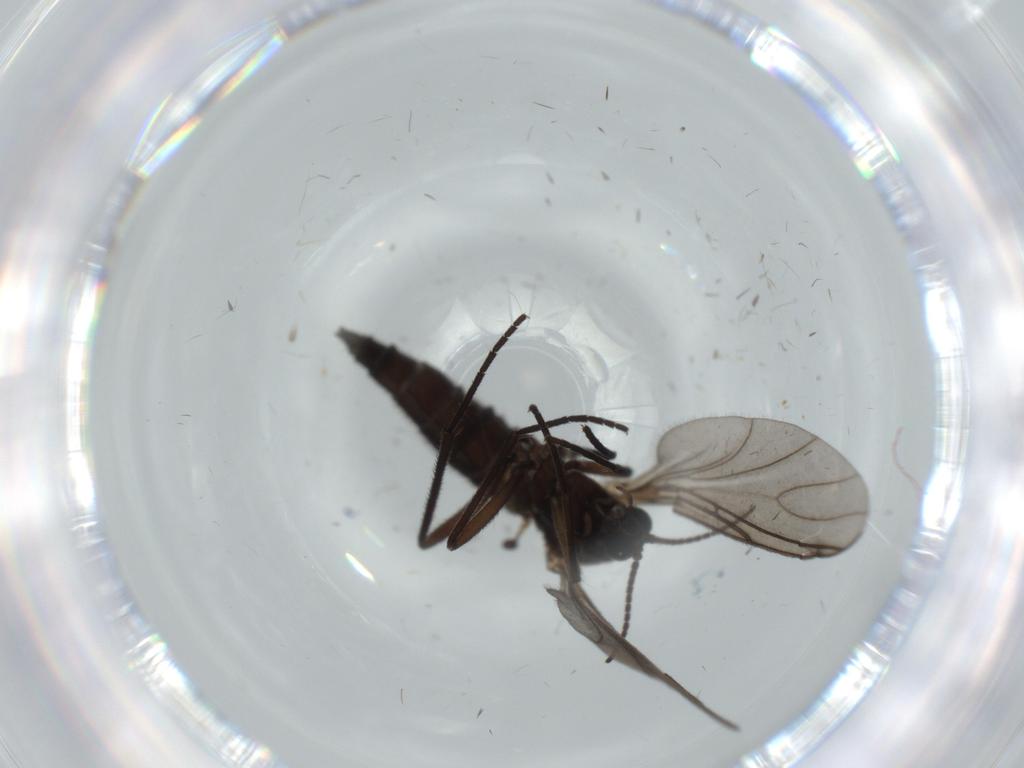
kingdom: Animalia
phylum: Arthropoda
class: Insecta
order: Diptera
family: Sciaridae
